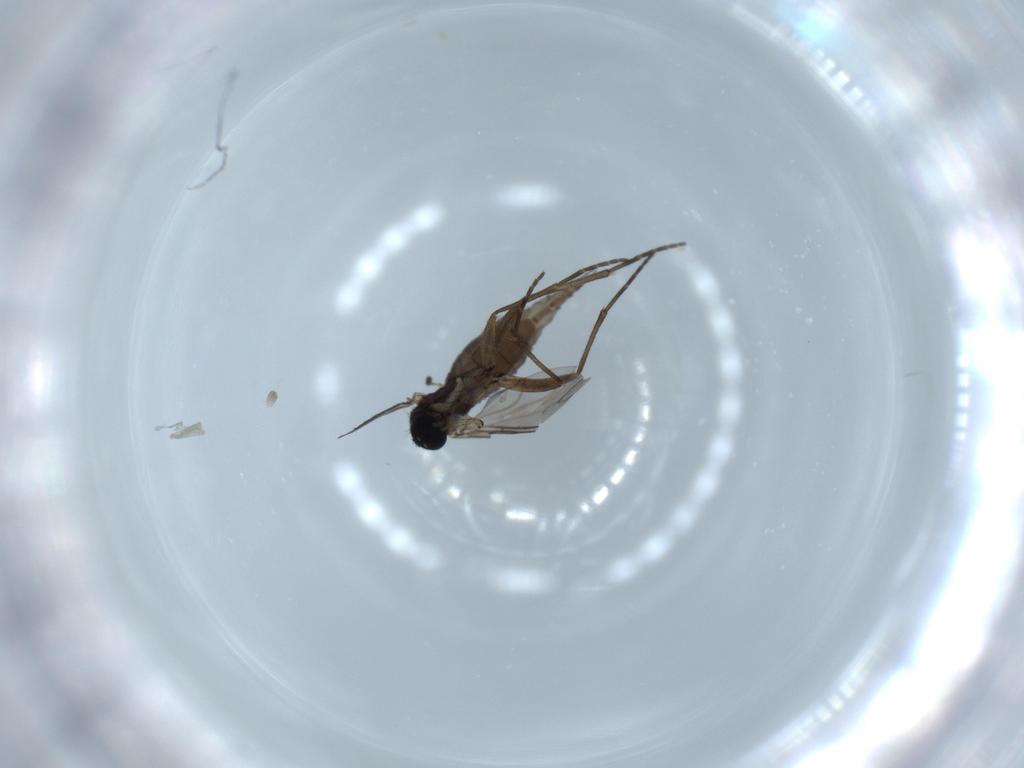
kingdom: Animalia
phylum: Arthropoda
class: Insecta
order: Diptera
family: Sciaridae
